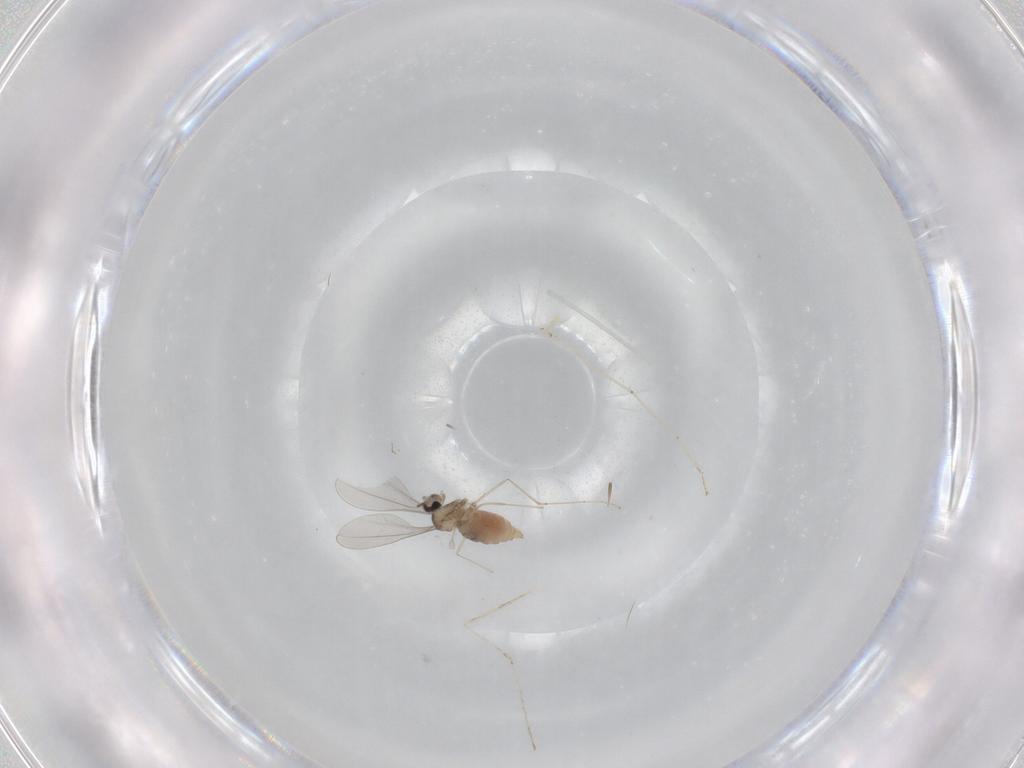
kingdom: Animalia
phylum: Arthropoda
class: Insecta
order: Diptera
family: Cecidomyiidae
